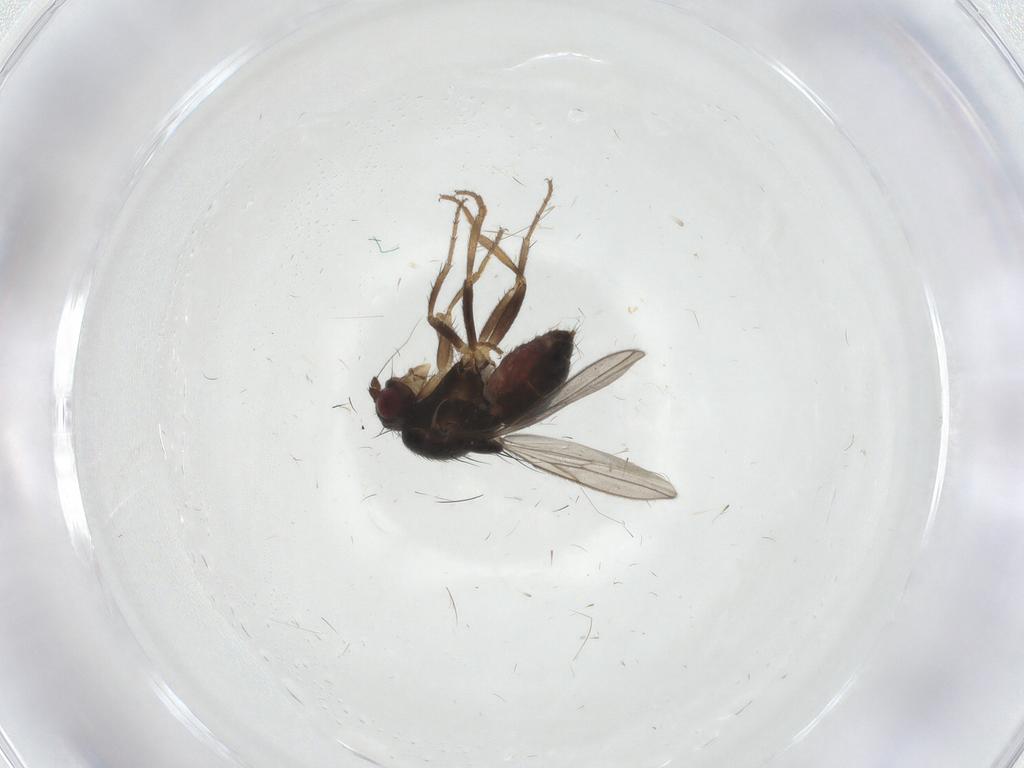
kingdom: Animalia
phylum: Arthropoda
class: Insecta
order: Diptera
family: Sphaeroceridae
